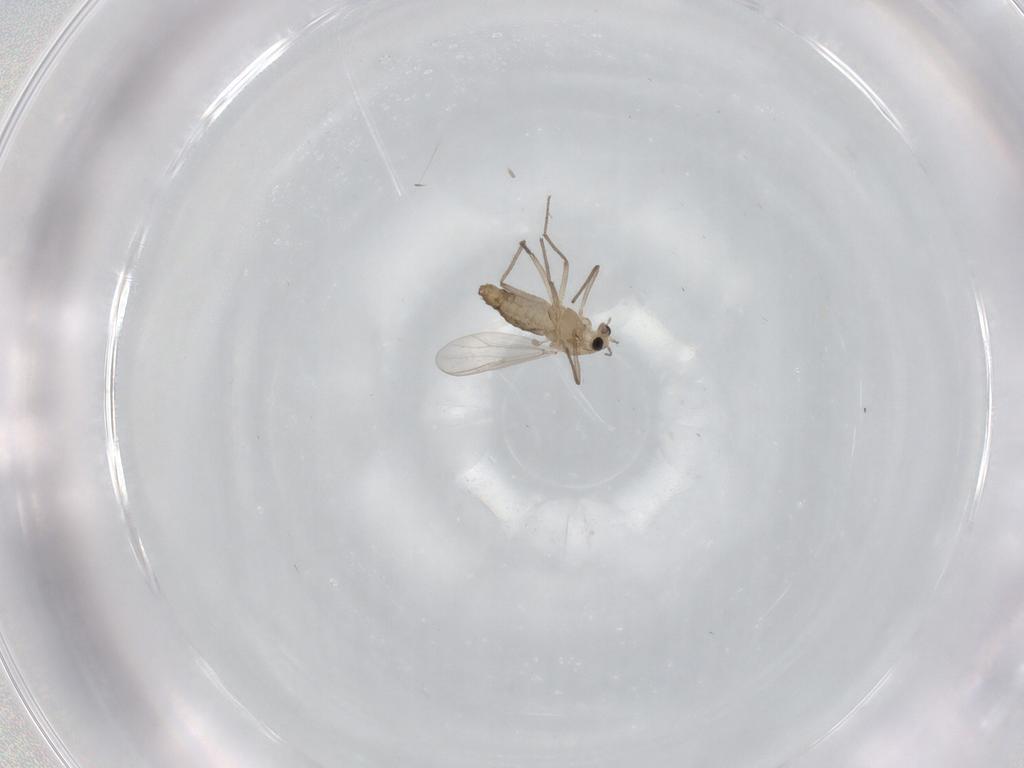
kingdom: Animalia
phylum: Arthropoda
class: Insecta
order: Diptera
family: Chironomidae
